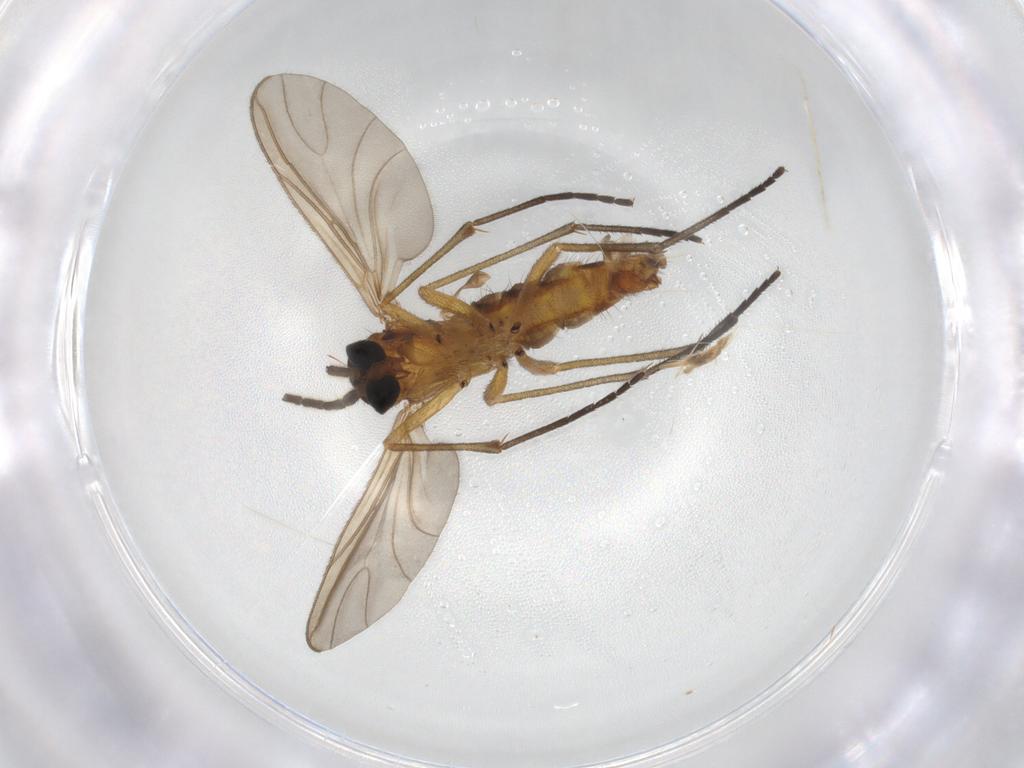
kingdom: Animalia
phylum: Arthropoda
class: Insecta
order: Diptera
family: Sciaridae
